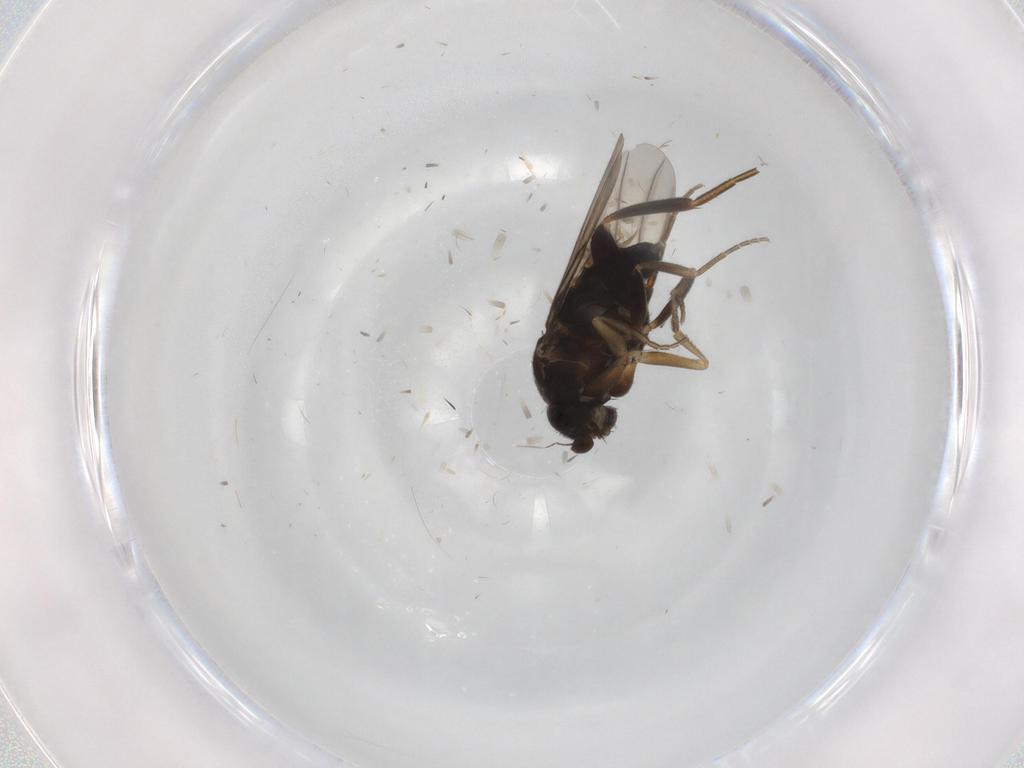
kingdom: Animalia
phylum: Arthropoda
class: Insecta
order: Diptera
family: Cecidomyiidae
